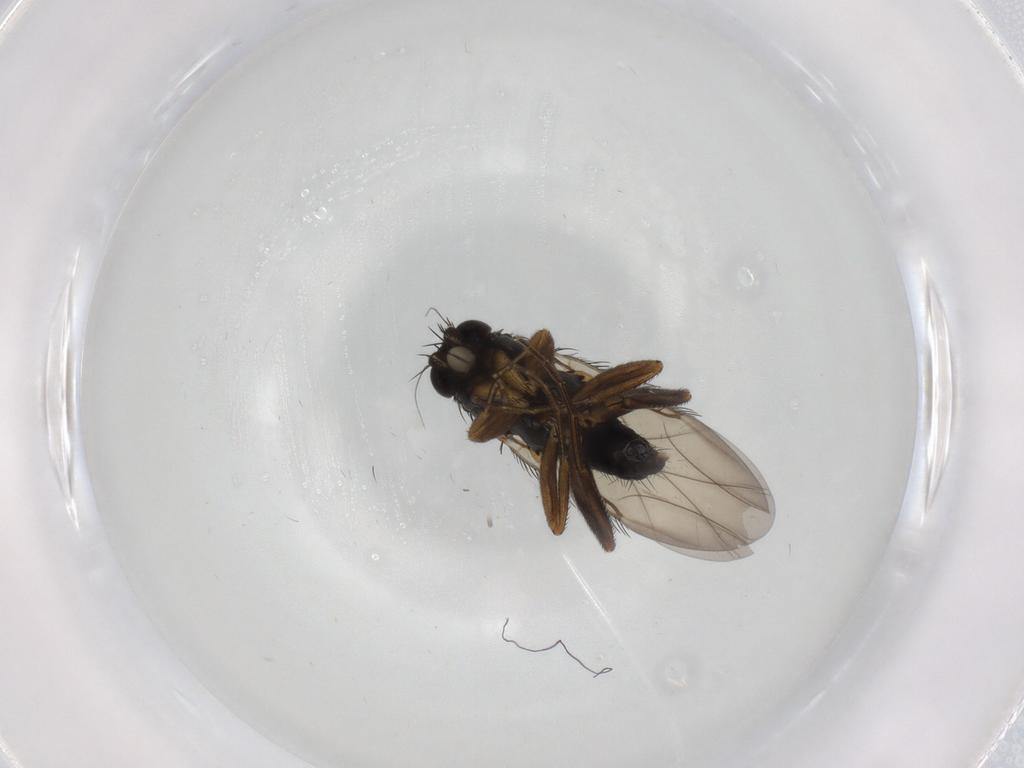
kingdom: Animalia
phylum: Arthropoda
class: Insecta
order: Diptera
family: Phoridae
